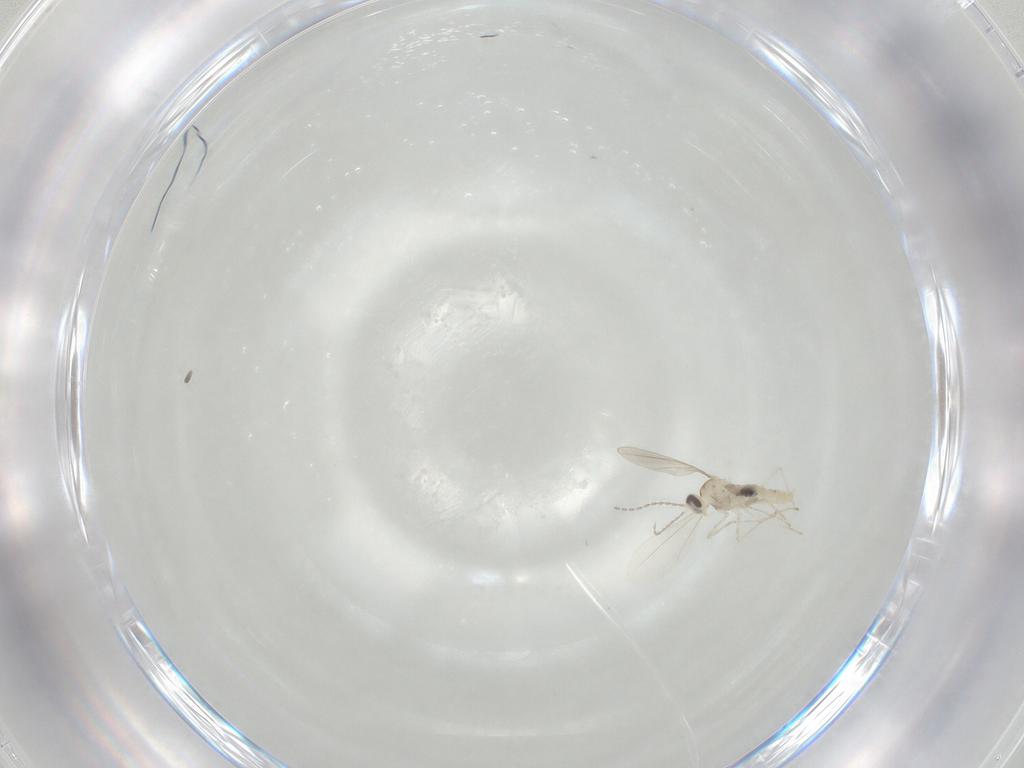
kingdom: Animalia
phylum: Arthropoda
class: Insecta
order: Diptera
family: Cecidomyiidae
